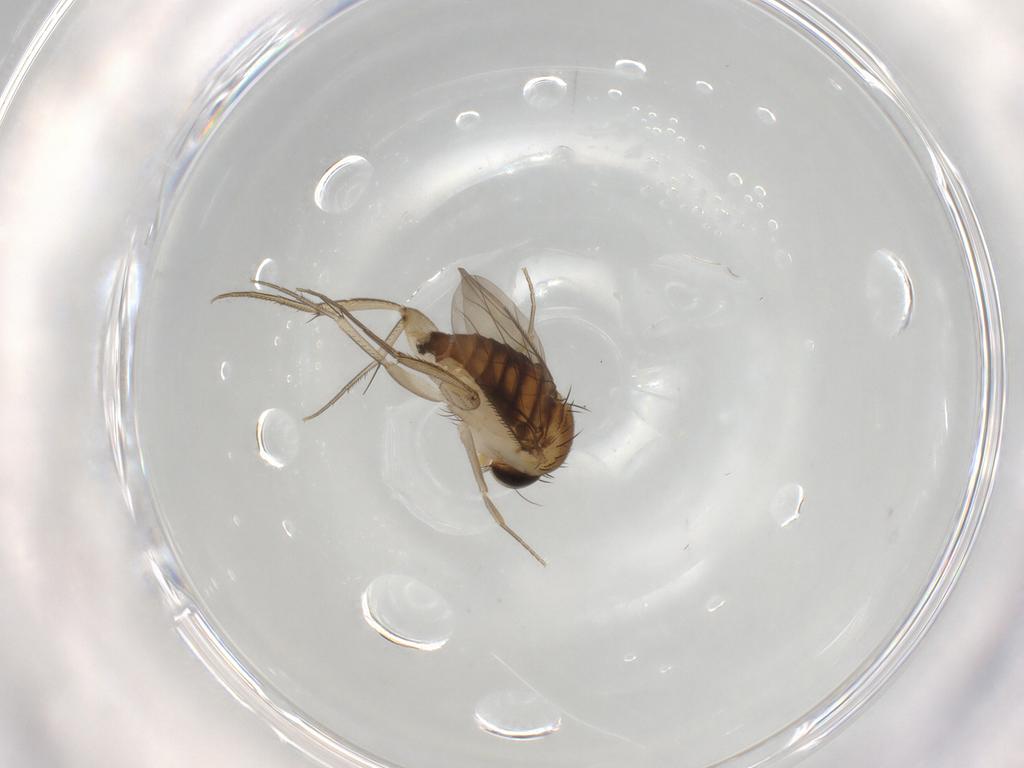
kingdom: Animalia
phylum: Arthropoda
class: Insecta
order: Diptera
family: Phoridae
